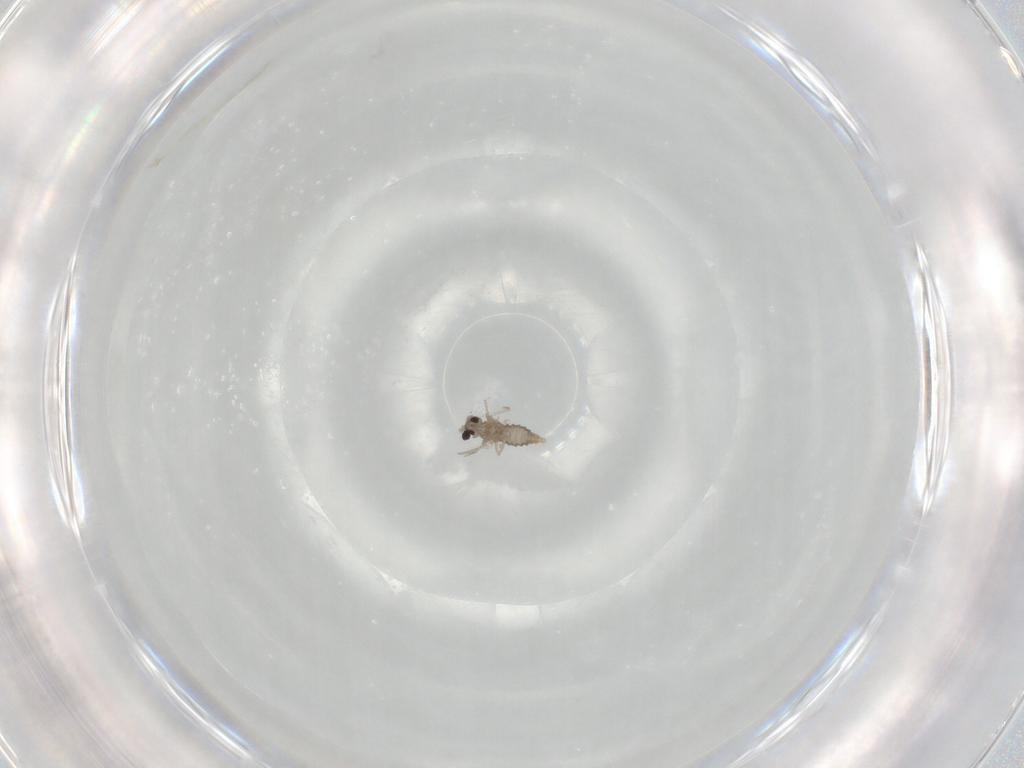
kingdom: Animalia
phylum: Arthropoda
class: Insecta
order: Diptera
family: Cecidomyiidae
